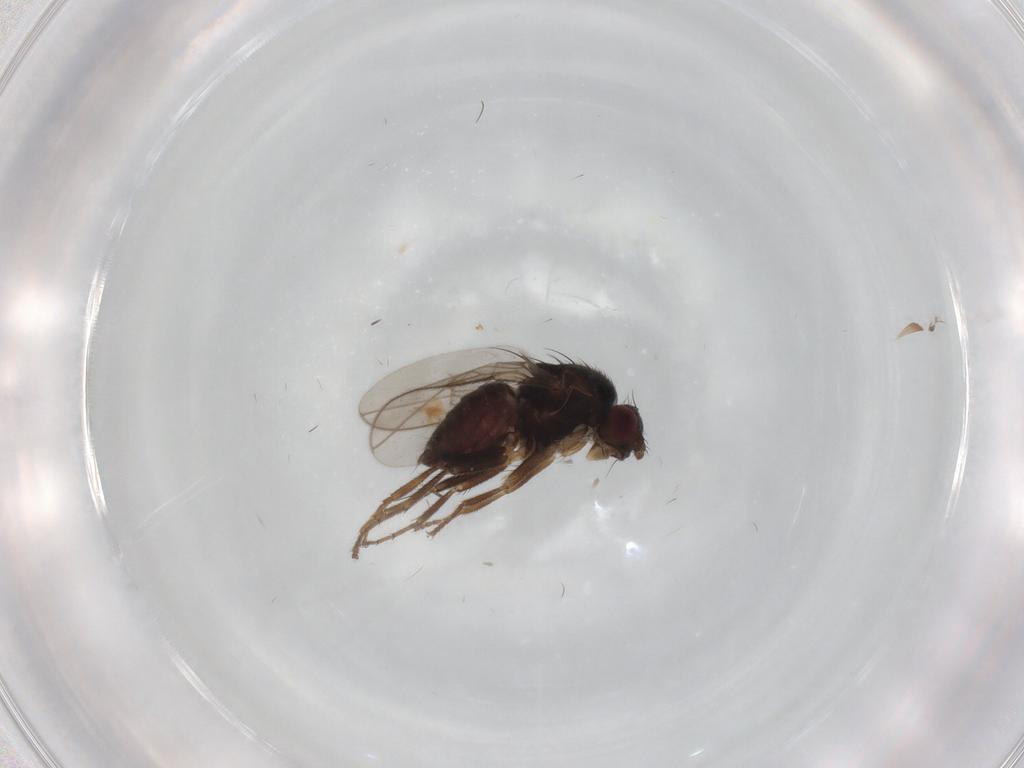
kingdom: Animalia
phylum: Arthropoda
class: Insecta
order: Diptera
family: Sphaeroceridae
